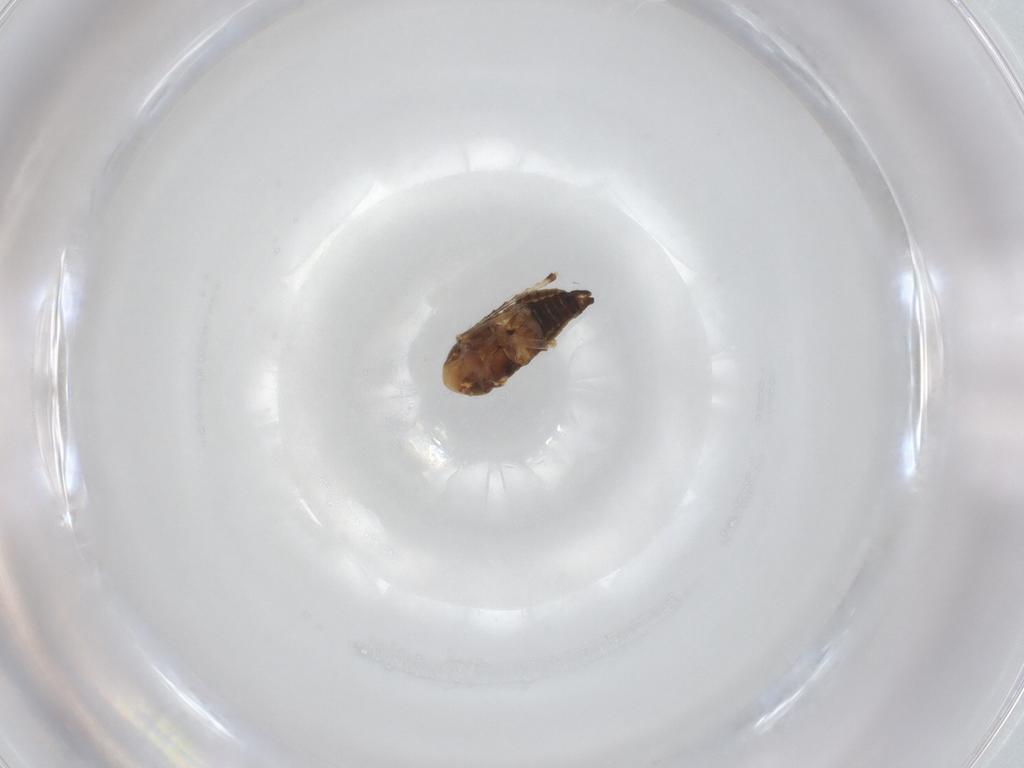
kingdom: Animalia
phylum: Arthropoda
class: Insecta
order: Hemiptera
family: Cicadellidae
